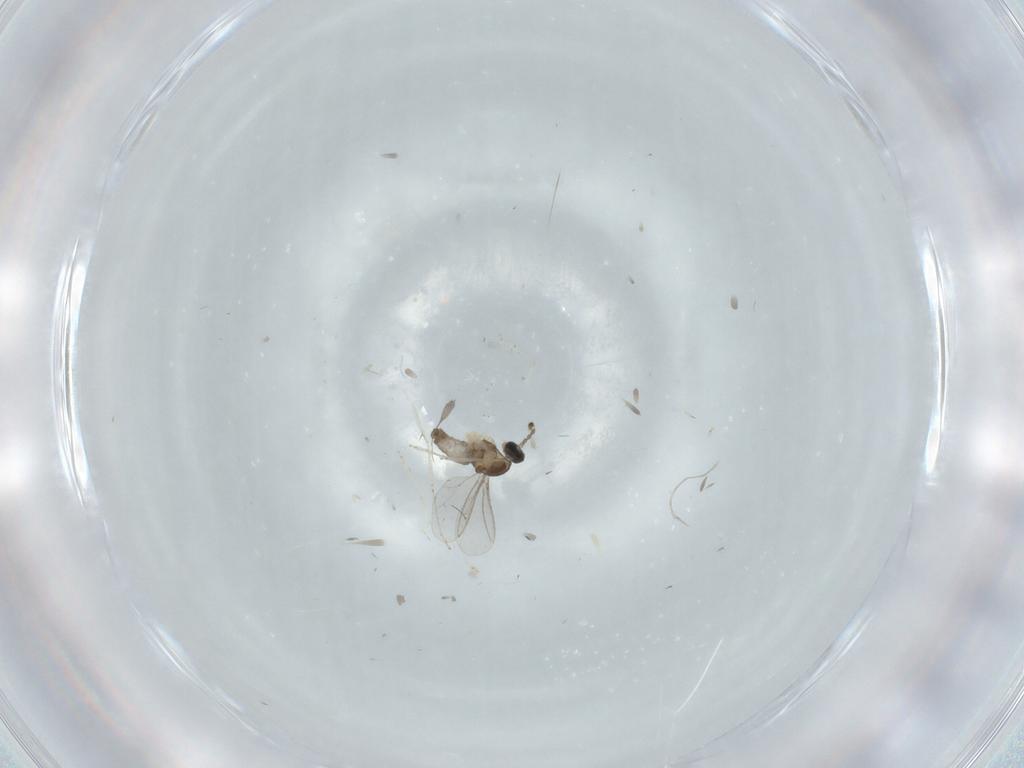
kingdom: Animalia
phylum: Arthropoda
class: Insecta
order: Diptera
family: Cecidomyiidae
